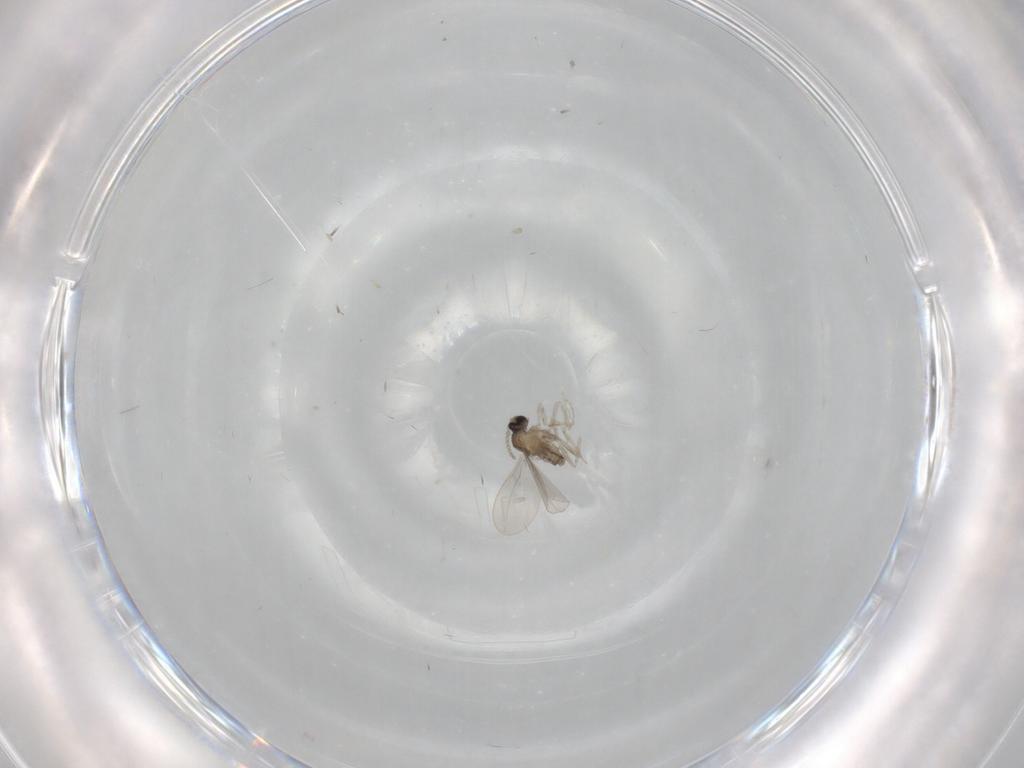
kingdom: Animalia
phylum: Arthropoda
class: Insecta
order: Diptera
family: Cecidomyiidae
